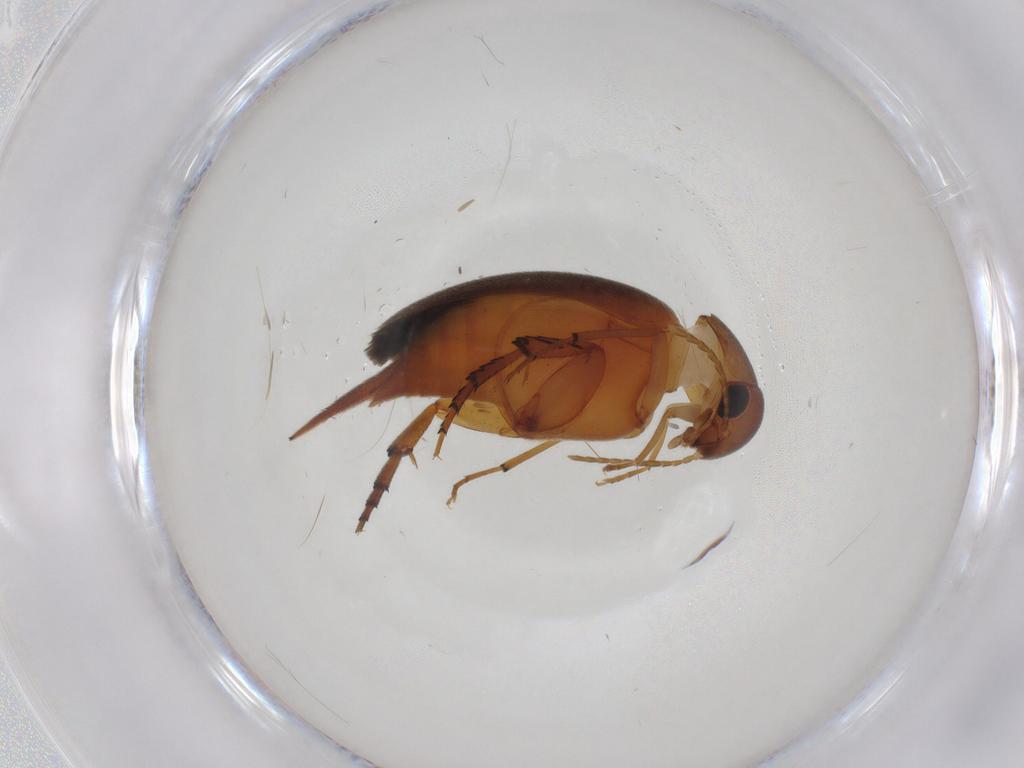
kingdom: Animalia
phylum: Arthropoda
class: Insecta
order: Coleoptera
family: Mordellidae
